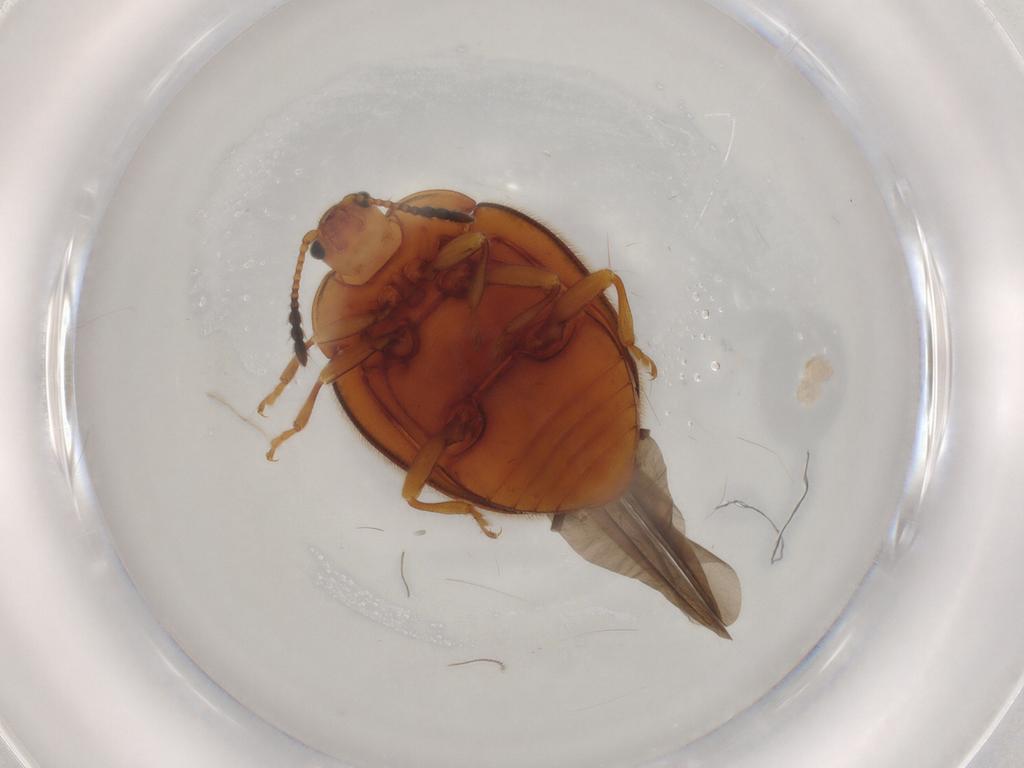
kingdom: Animalia
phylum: Arthropoda
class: Insecta
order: Coleoptera
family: Endomychidae
